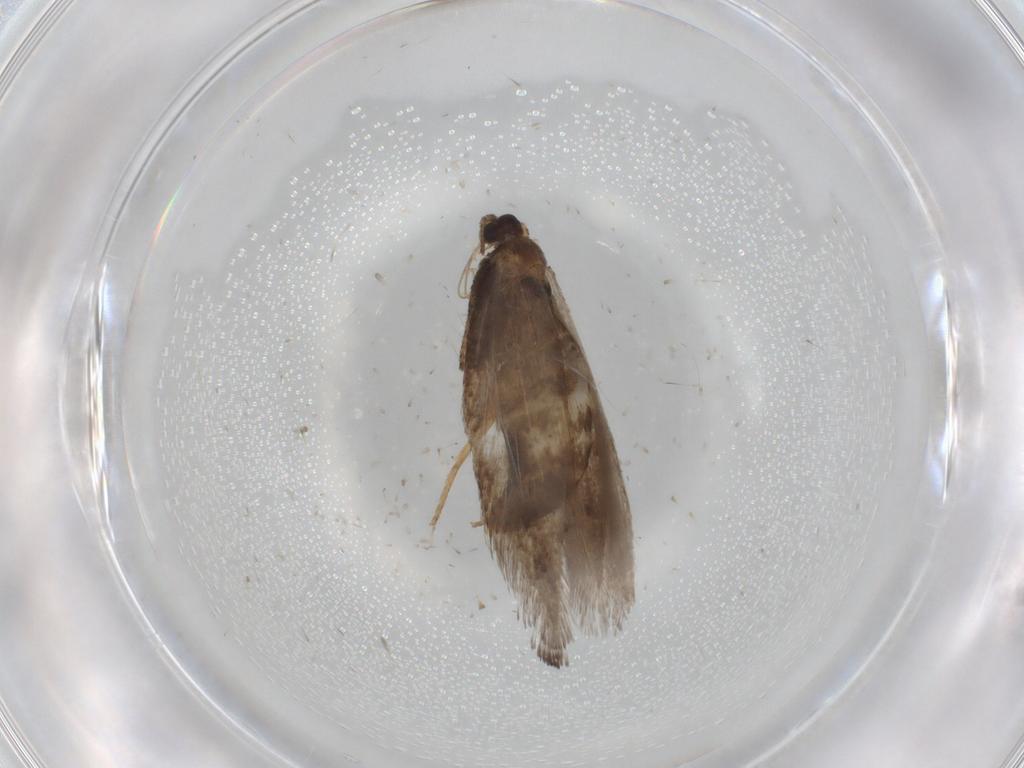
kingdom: Animalia
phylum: Arthropoda
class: Insecta
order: Lepidoptera
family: Nepticulidae
